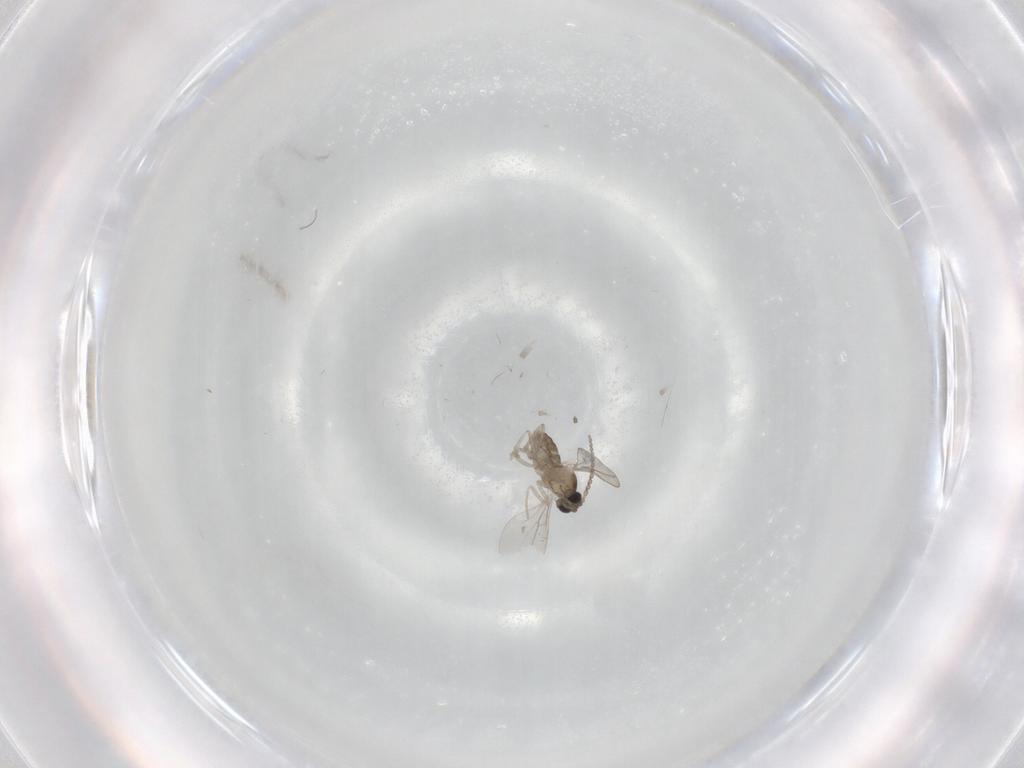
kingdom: Animalia
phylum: Arthropoda
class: Insecta
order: Diptera
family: Cecidomyiidae
